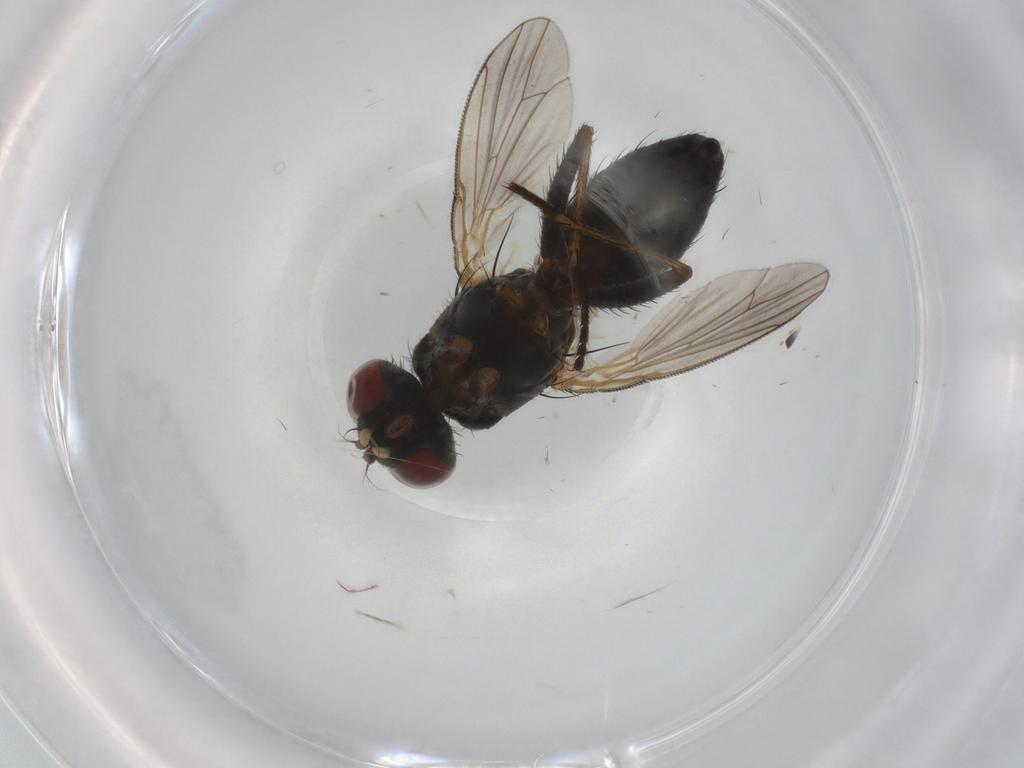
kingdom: Animalia
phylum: Arthropoda
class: Insecta
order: Diptera
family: Muscidae
